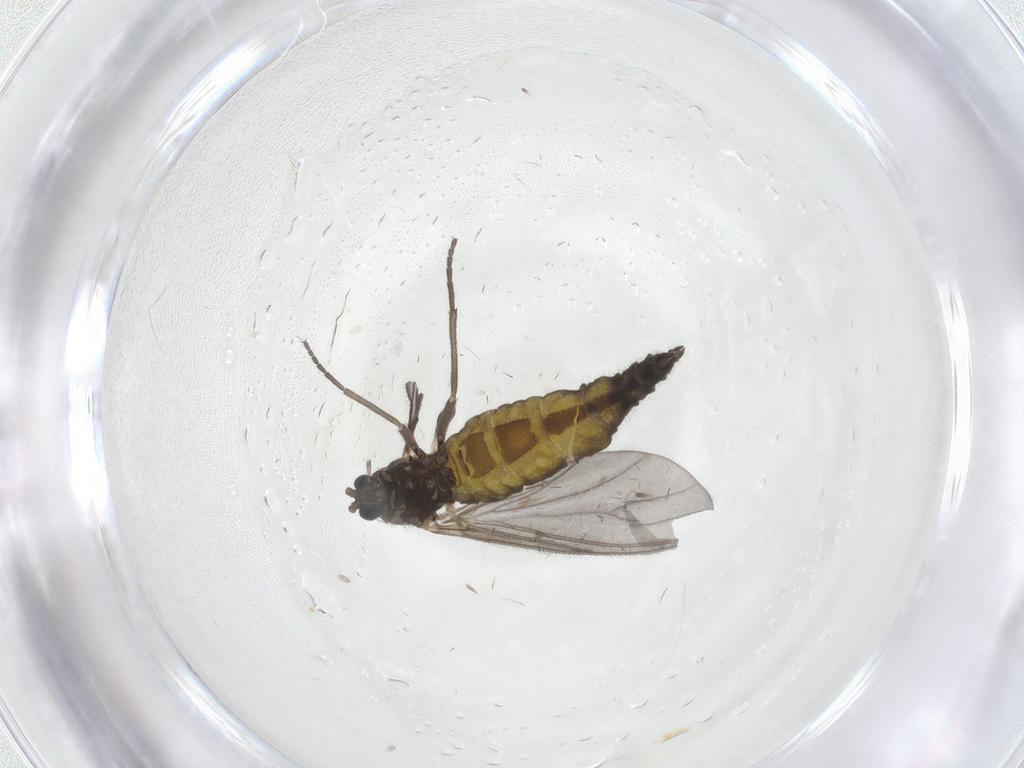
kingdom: Animalia
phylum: Arthropoda
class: Insecta
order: Diptera
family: Sciaridae
